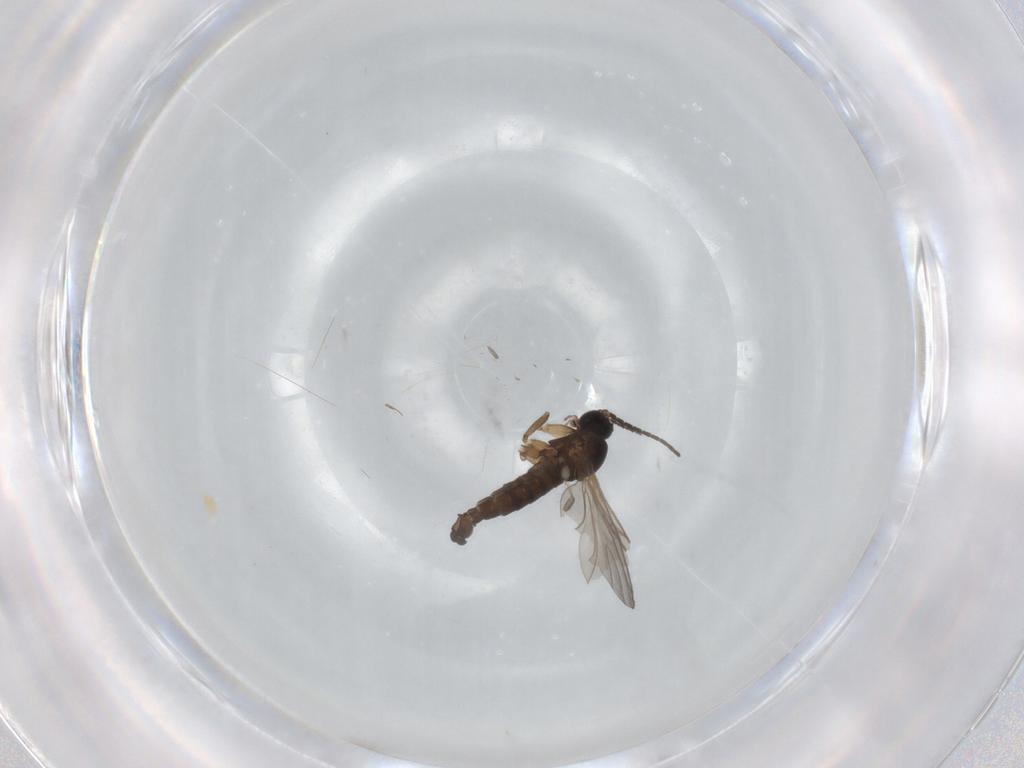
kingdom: Animalia
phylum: Arthropoda
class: Insecta
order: Diptera
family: Sciaridae
